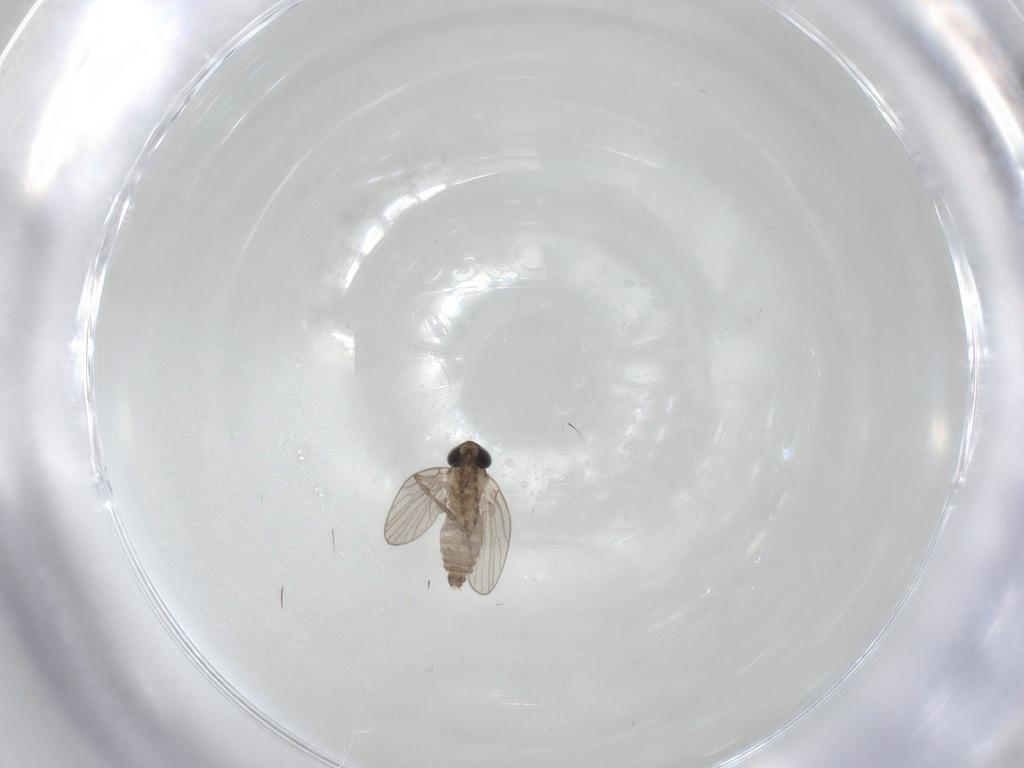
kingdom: Animalia
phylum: Arthropoda
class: Insecta
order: Diptera
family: Psychodidae
